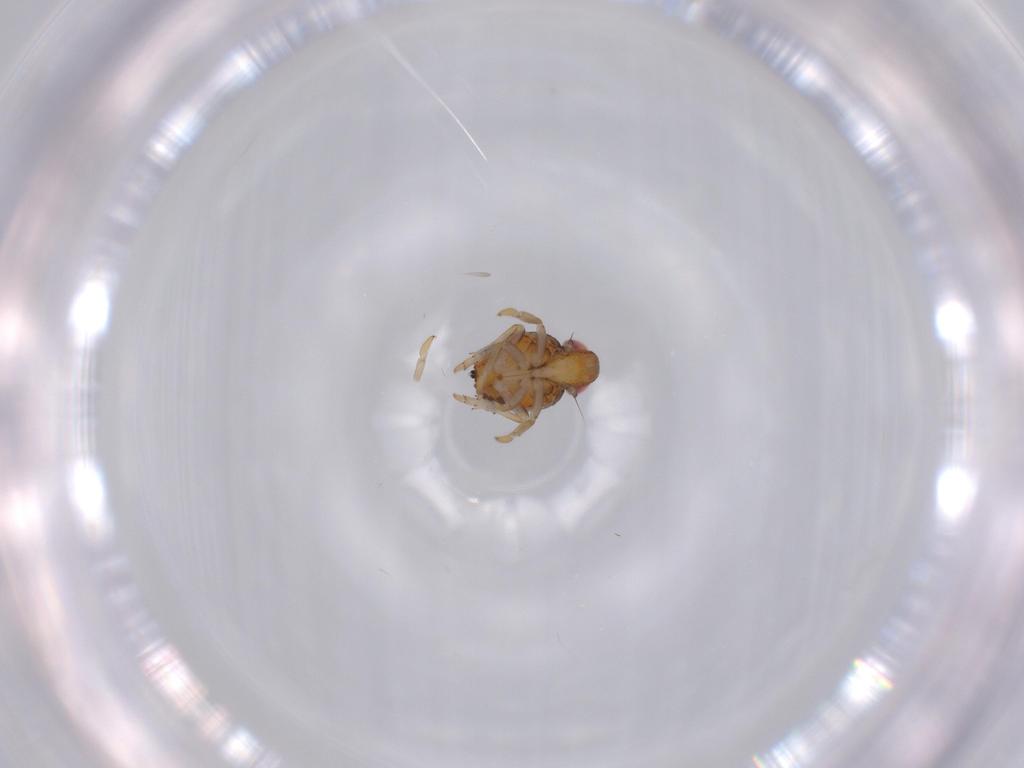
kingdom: Animalia
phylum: Arthropoda
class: Insecta
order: Hemiptera
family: Issidae
